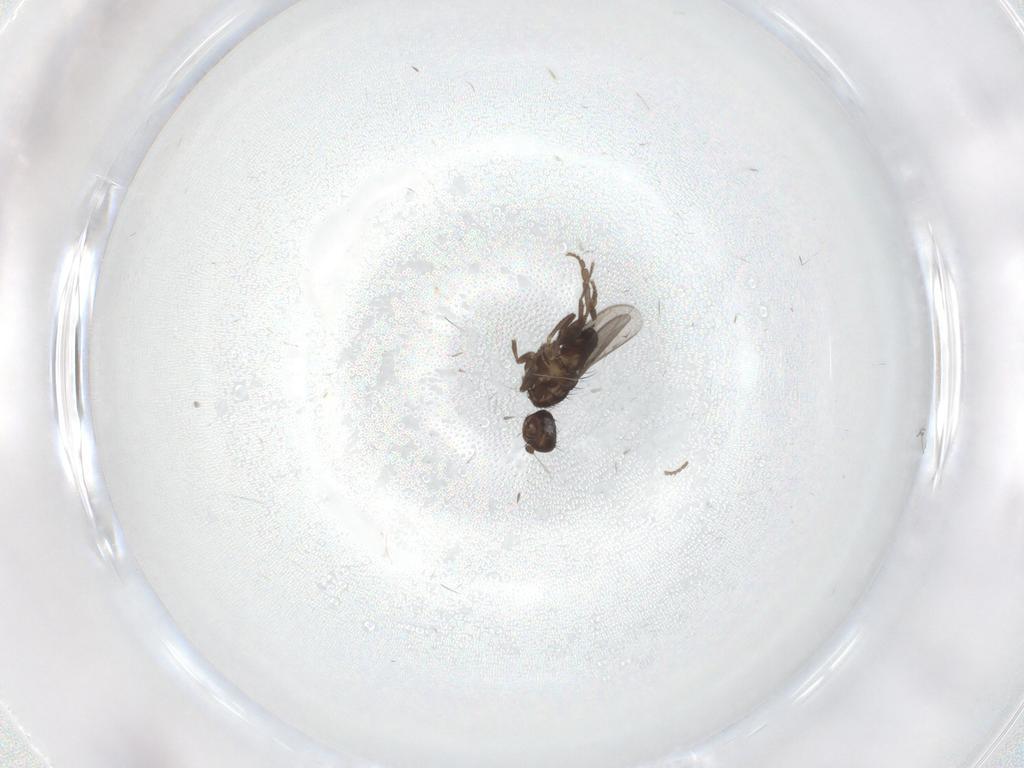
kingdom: Animalia
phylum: Arthropoda
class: Insecta
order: Diptera
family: Sphaeroceridae
